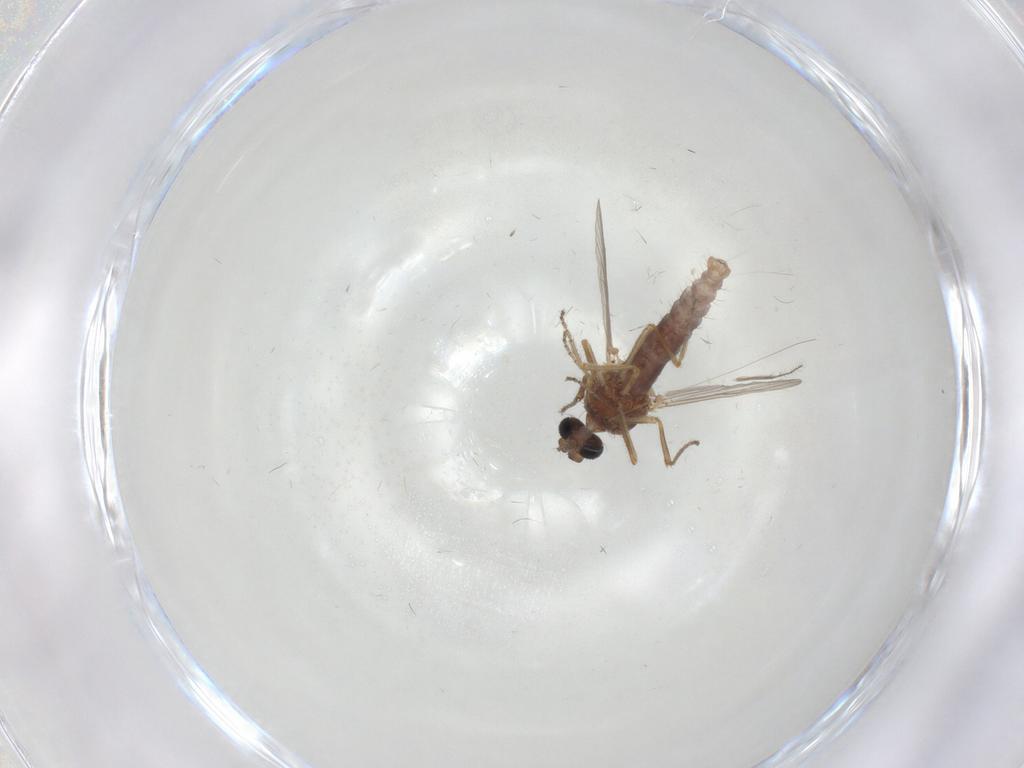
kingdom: Animalia
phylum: Arthropoda
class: Insecta
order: Diptera
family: Ceratopogonidae
